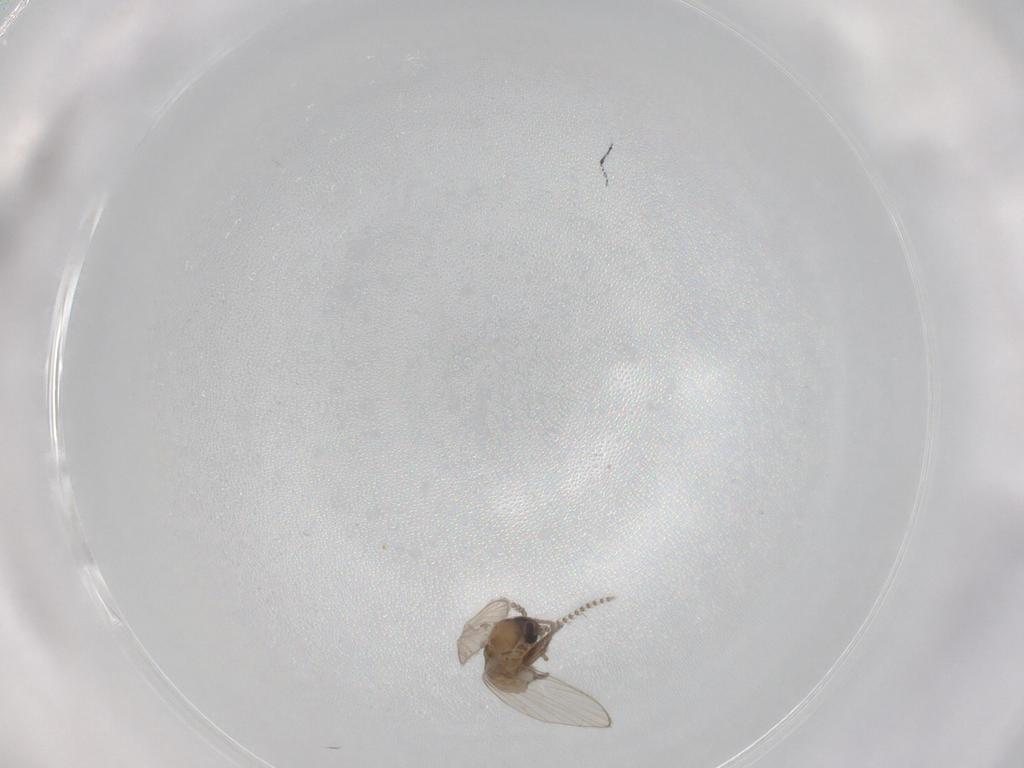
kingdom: Animalia
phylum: Arthropoda
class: Insecta
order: Diptera
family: Psychodidae
